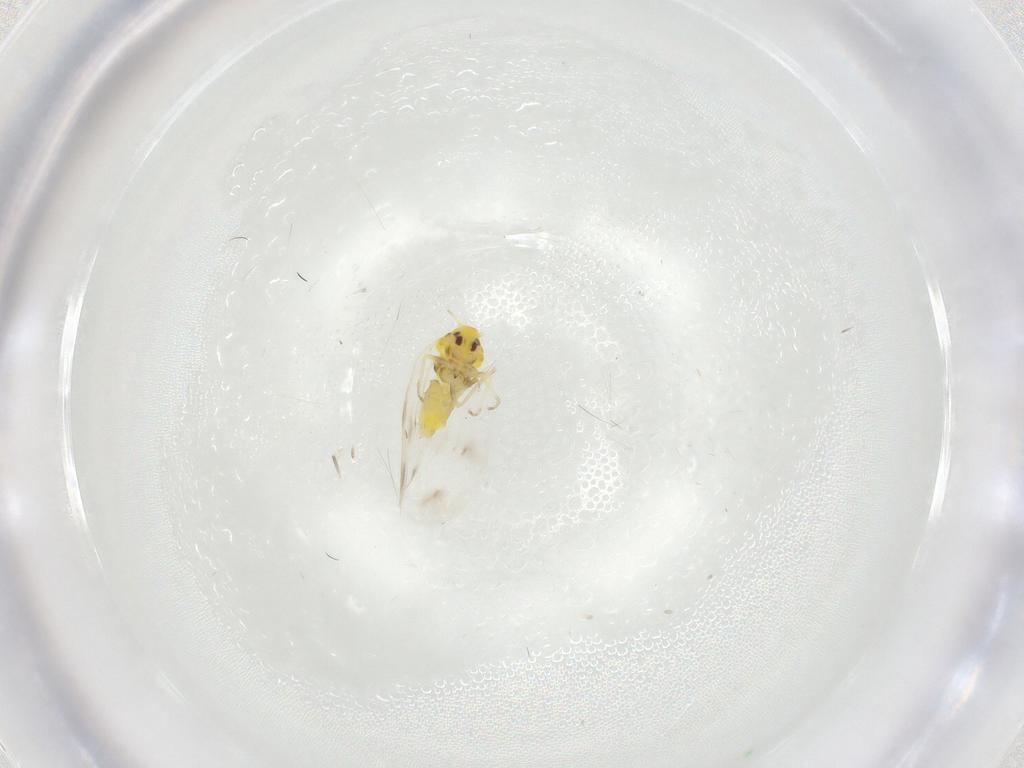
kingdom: Animalia
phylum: Arthropoda
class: Insecta
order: Hemiptera
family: Aleyrodidae
